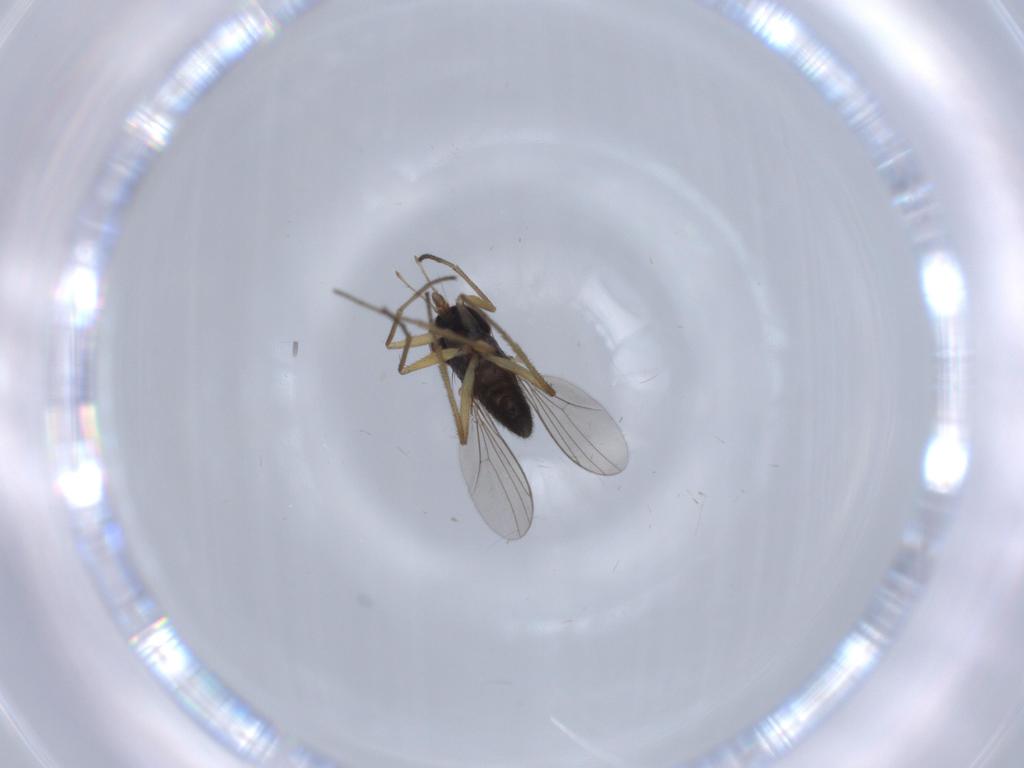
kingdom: Animalia
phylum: Arthropoda
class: Insecta
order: Diptera
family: Dolichopodidae
